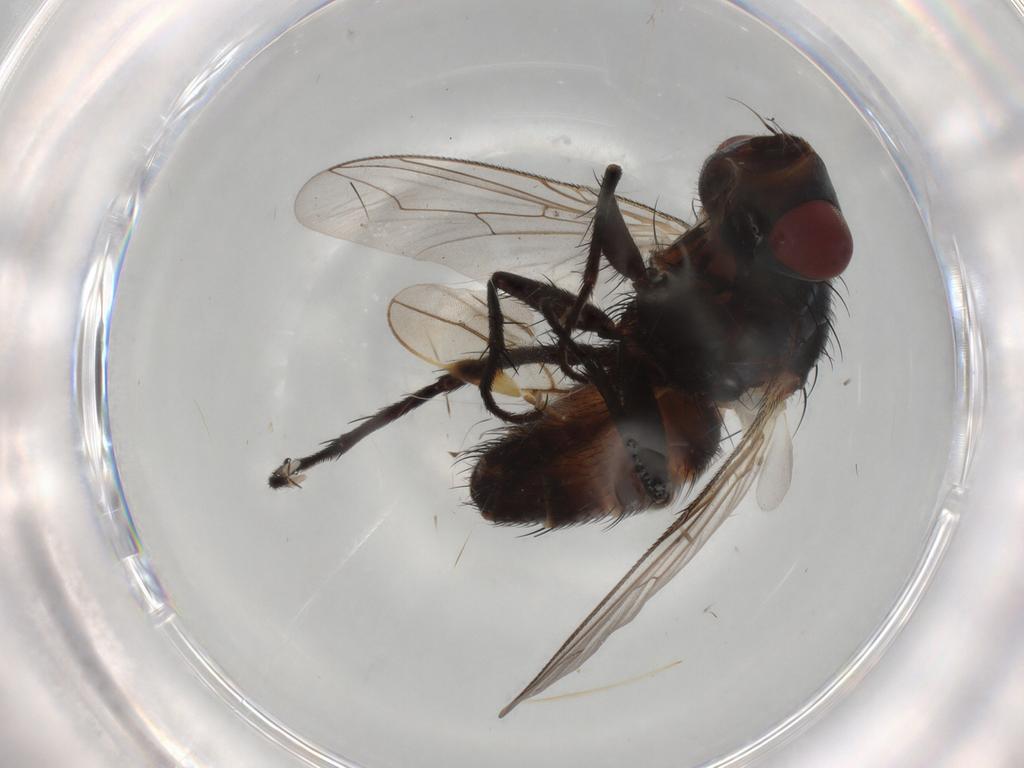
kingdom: Animalia
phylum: Arthropoda
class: Insecta
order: Diptera
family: Sarcophagidae
